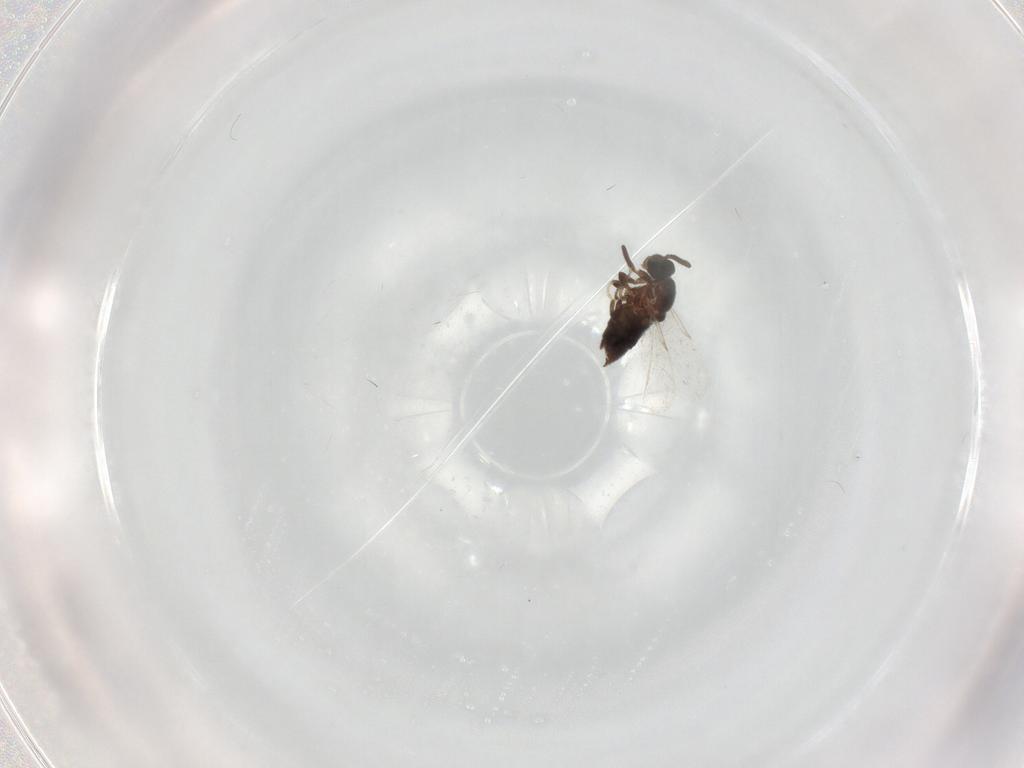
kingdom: Animalia
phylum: Arthropoda
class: Insecta
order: Diptera
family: Scatopsidae
